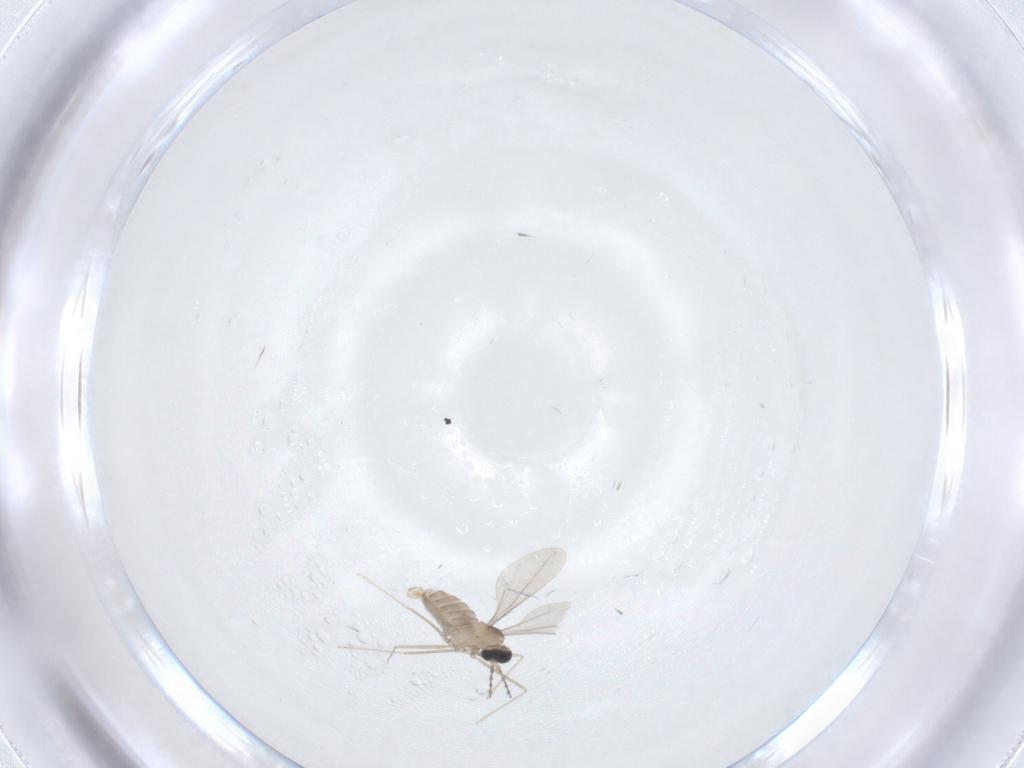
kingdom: Animalia
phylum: Arthropoda
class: Insecta
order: Diptera
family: Cecidomyiidae
